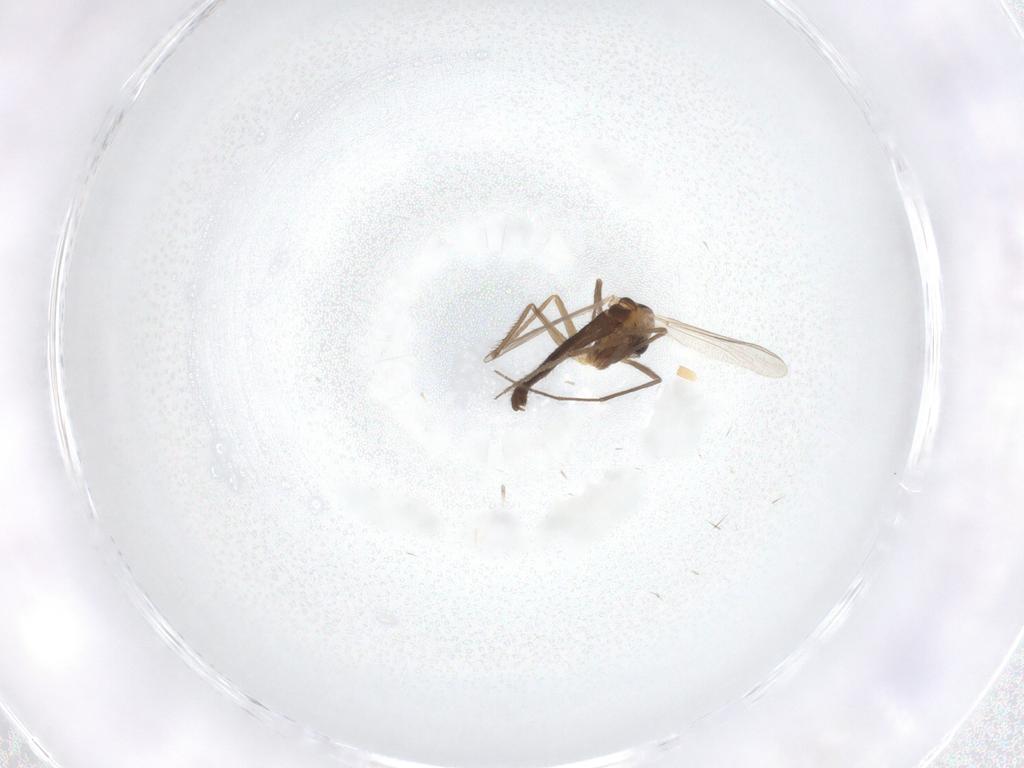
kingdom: Animalia
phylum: Arthropoda
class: Insecta
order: Diptera
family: Chironomidae
